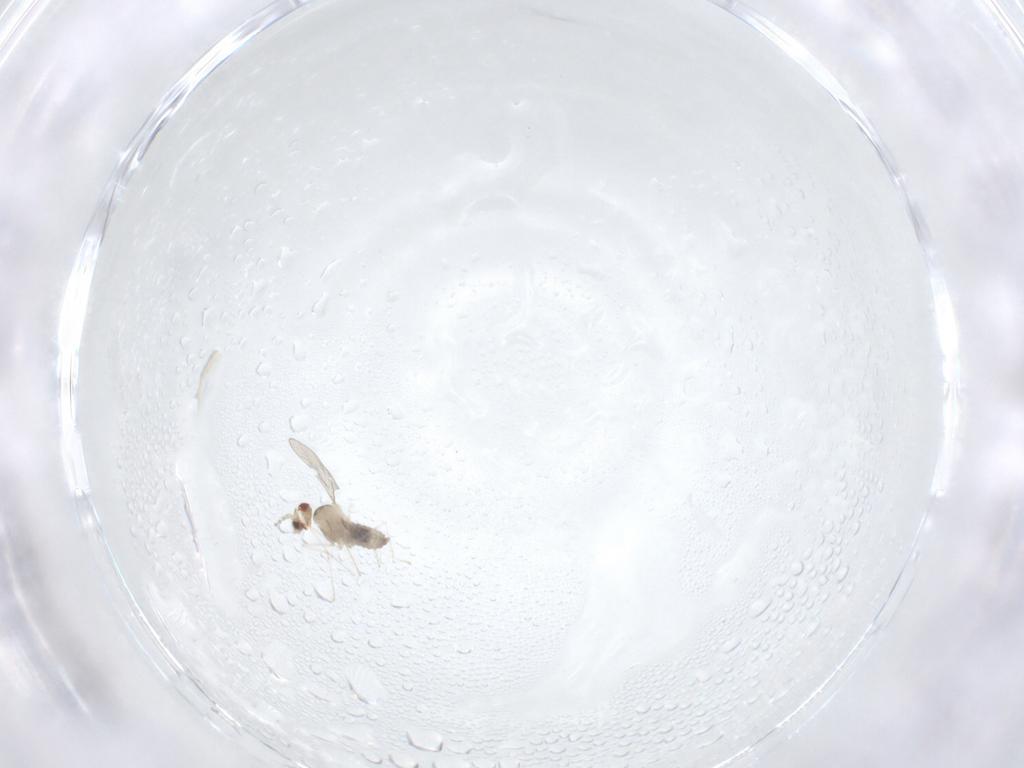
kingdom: Animalia
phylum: Arthropoda
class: Insecta
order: Diptera
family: Cecidomyiidae
